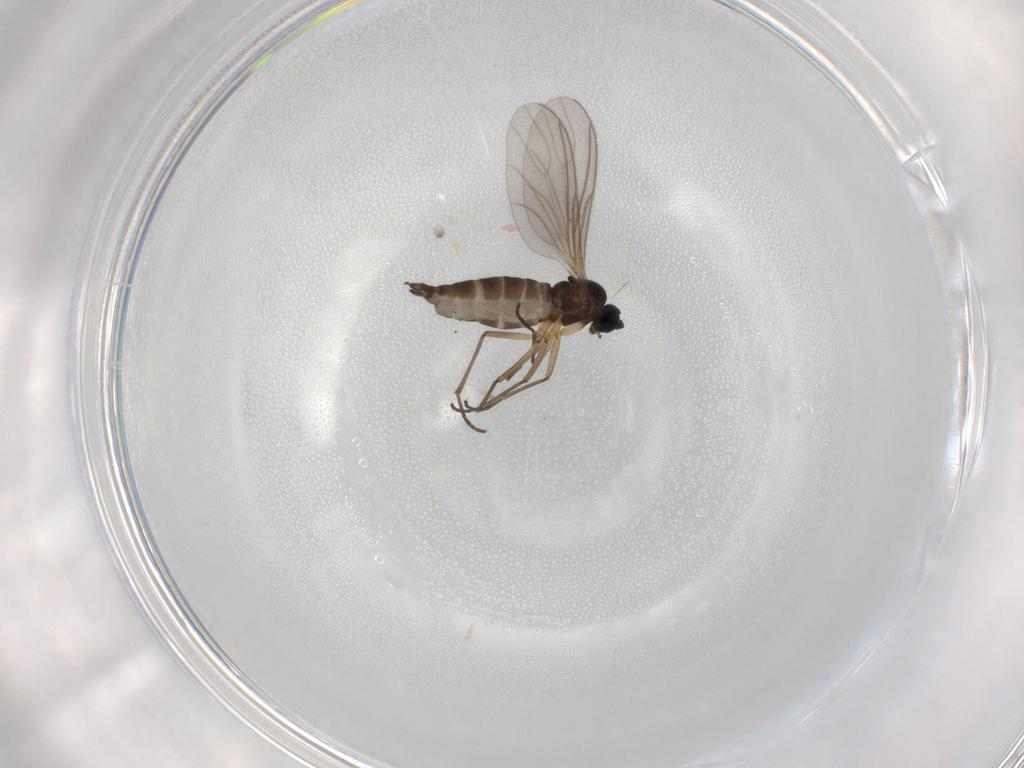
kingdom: Animalia
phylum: Arthropoda
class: Insecta
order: Diptera
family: Sciaridae
